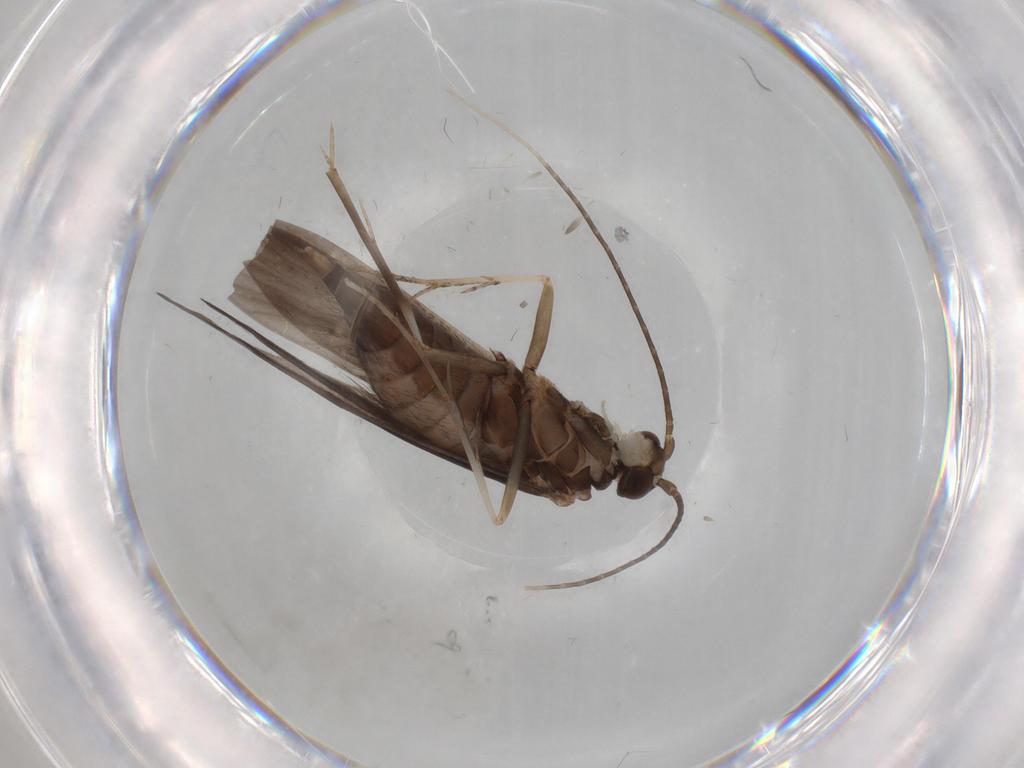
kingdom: Animalia
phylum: Arthropoda
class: Insecta
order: Trichoptera
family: Xiphocentronidae
